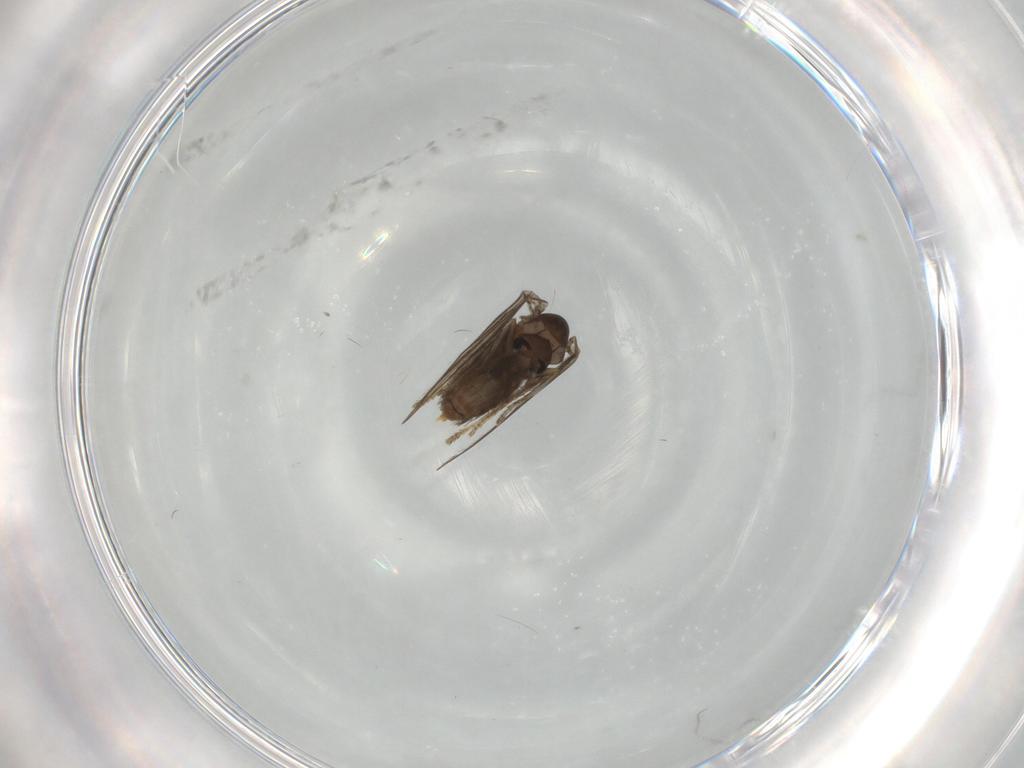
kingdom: Animalia
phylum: Arthropoda
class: Insecta
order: Diptera
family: Psychodidae
